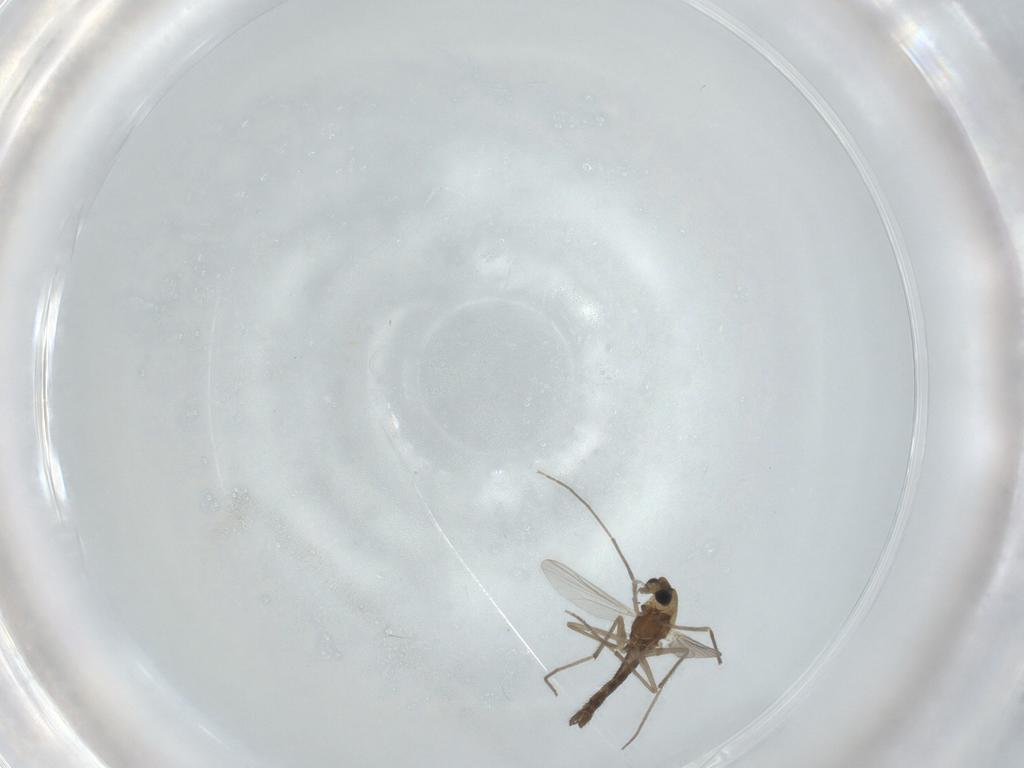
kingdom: Animalia
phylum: Arthropoda
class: Insecta
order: Diptera
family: Chironomidae
